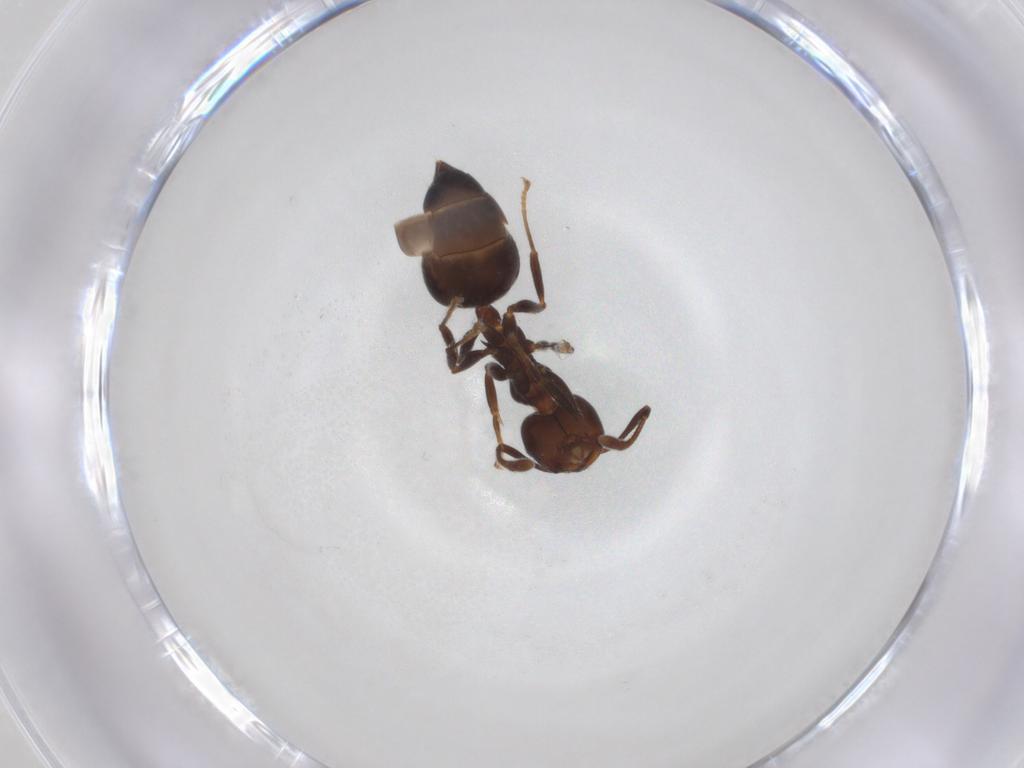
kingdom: Animalia
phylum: Arthropoda
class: Insecta
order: Hymenoptera
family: Formicidae
